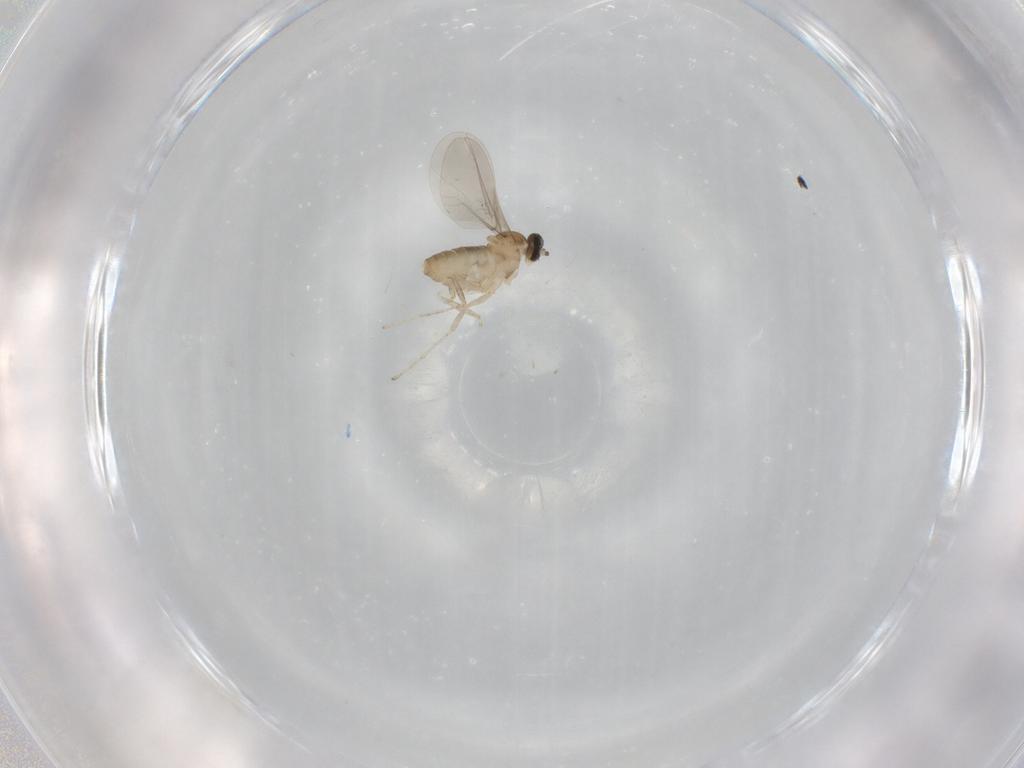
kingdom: Animalia
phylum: Arthropoda
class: Insecta
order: Diptera
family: Cecidomyiidae
